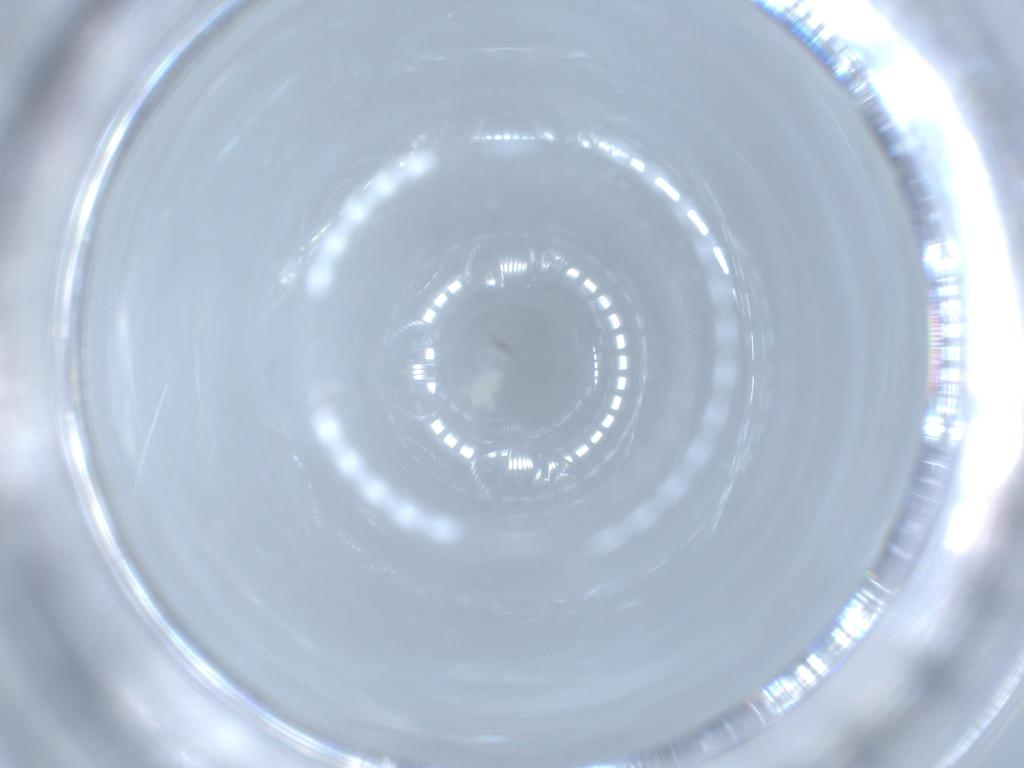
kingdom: Animalia
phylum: Arthropoda
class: Arachnida
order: Trombidiformes
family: Eupodidae
